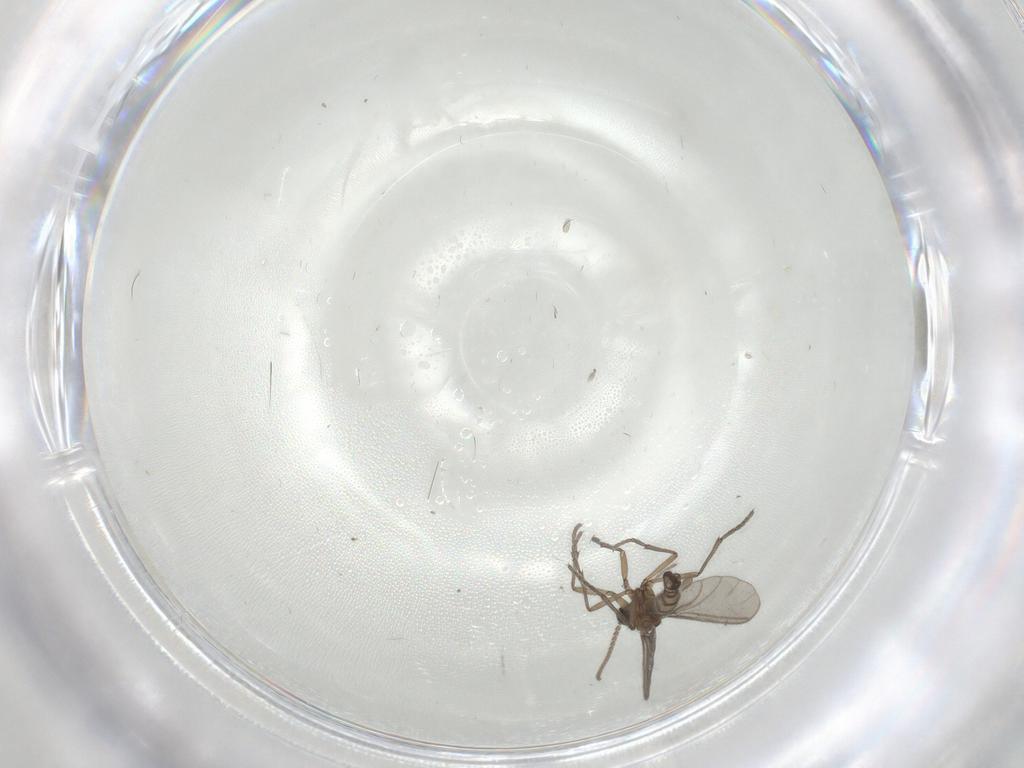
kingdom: Animalia
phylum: Arthropoda
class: Insecta
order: Diptera
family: Sciaridae
